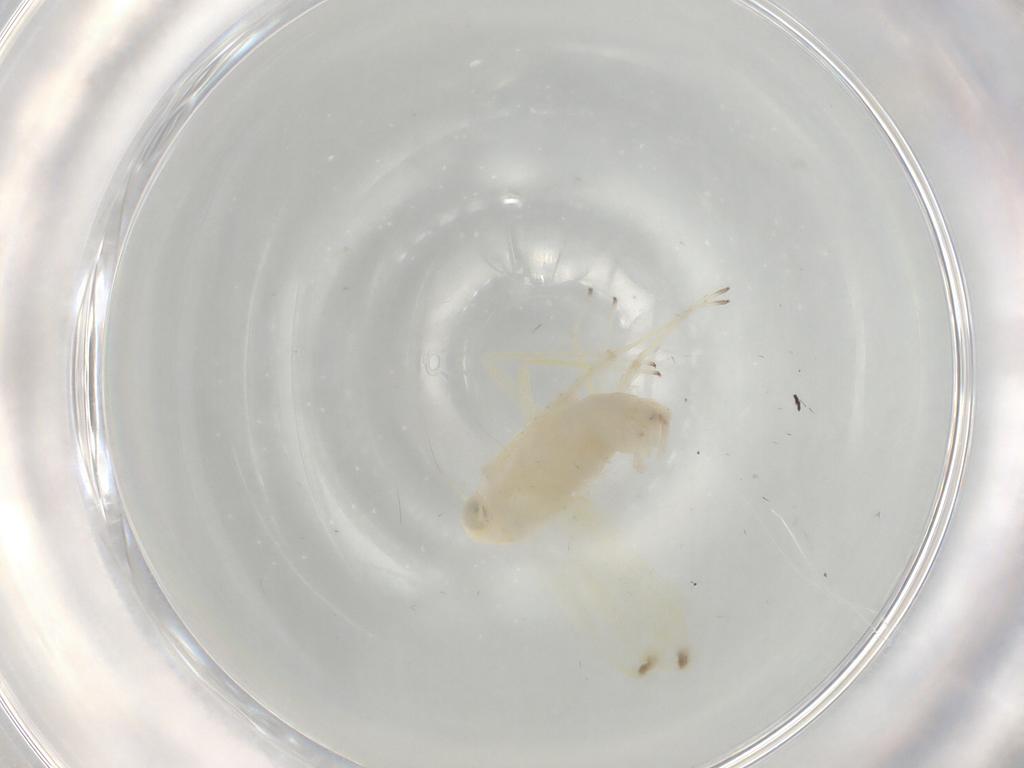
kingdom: Animalia
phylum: Arthropoda
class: Insecta
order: Hemiptera
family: Cicadellidae
